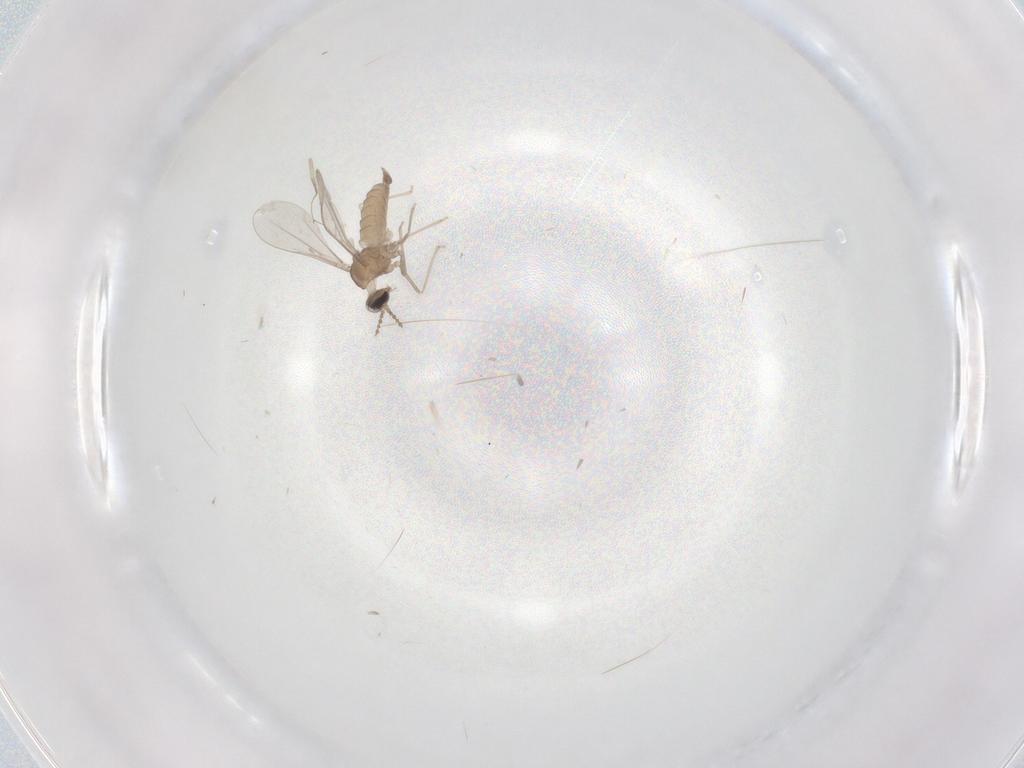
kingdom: Animalia
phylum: Arthropoda
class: Insecta
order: Diptera
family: Cecidomyiidae
